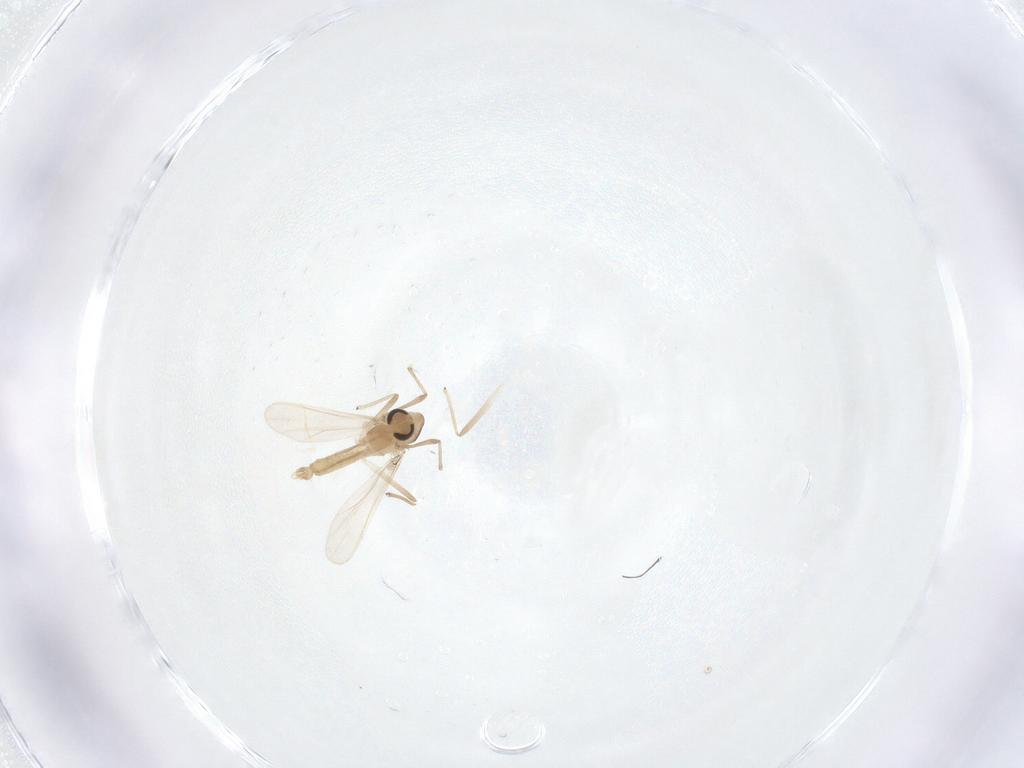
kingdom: Animalia
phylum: Arthropoda
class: Insecta
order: Diptera
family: Chironomidae
